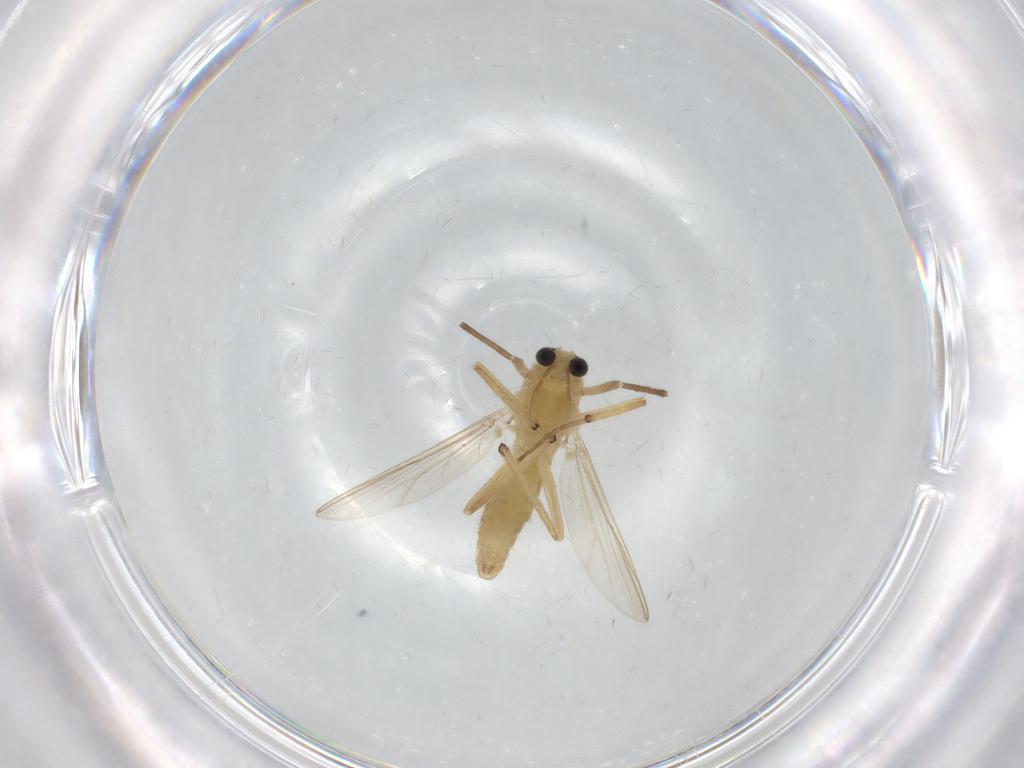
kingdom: Animalia
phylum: Arthropoda
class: Insecta
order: Diptera
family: Chironomidae
